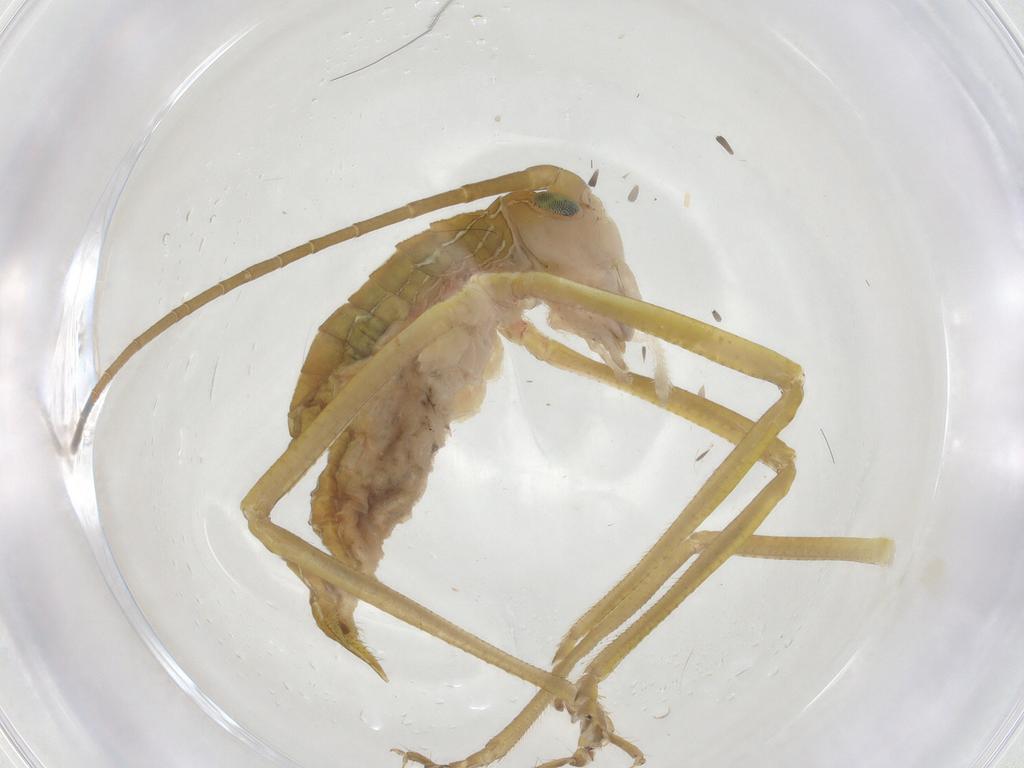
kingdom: Animalia
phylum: Arthropoda
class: Insecta
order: Orthoptera
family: Tettigoniidae
